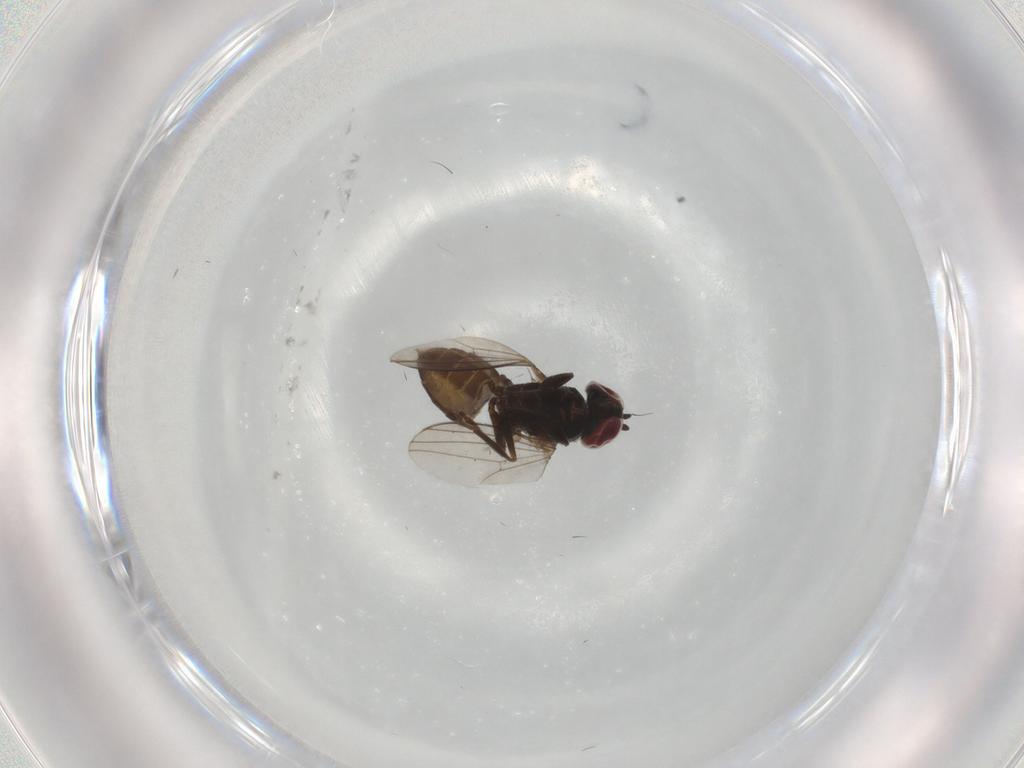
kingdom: Animalia
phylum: Arthropoda
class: Insecta
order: Diptera
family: Dolichopodidae
